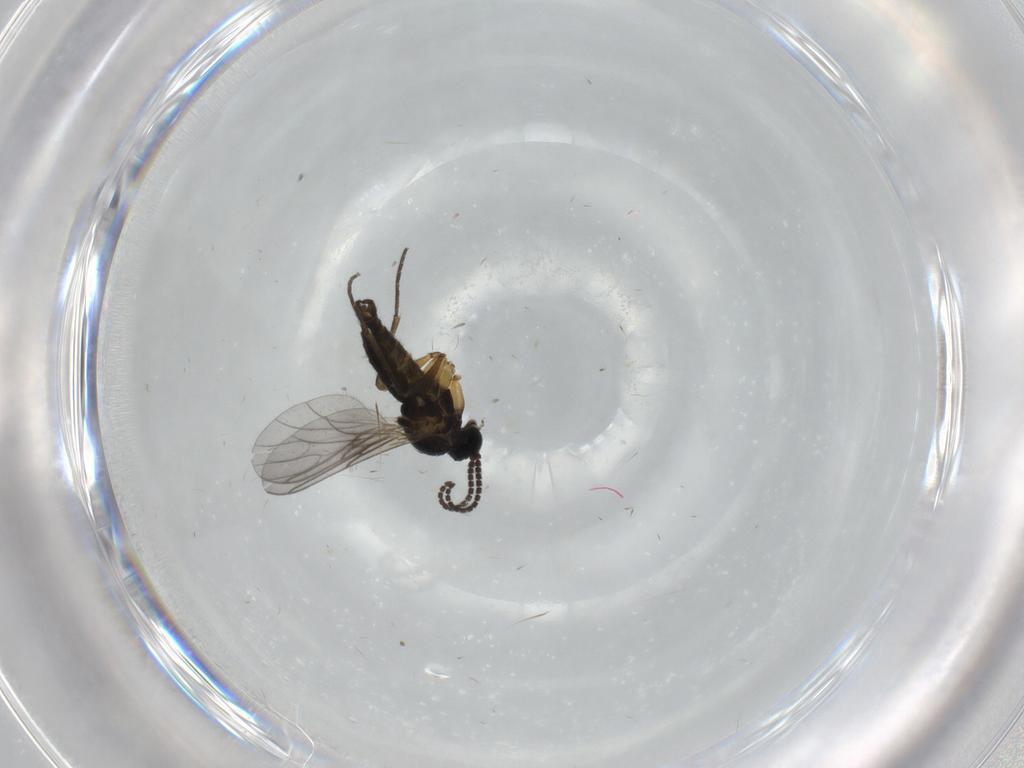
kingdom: Animalia
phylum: Arthropoda
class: Insecta
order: Diptera
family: Sciaridae
